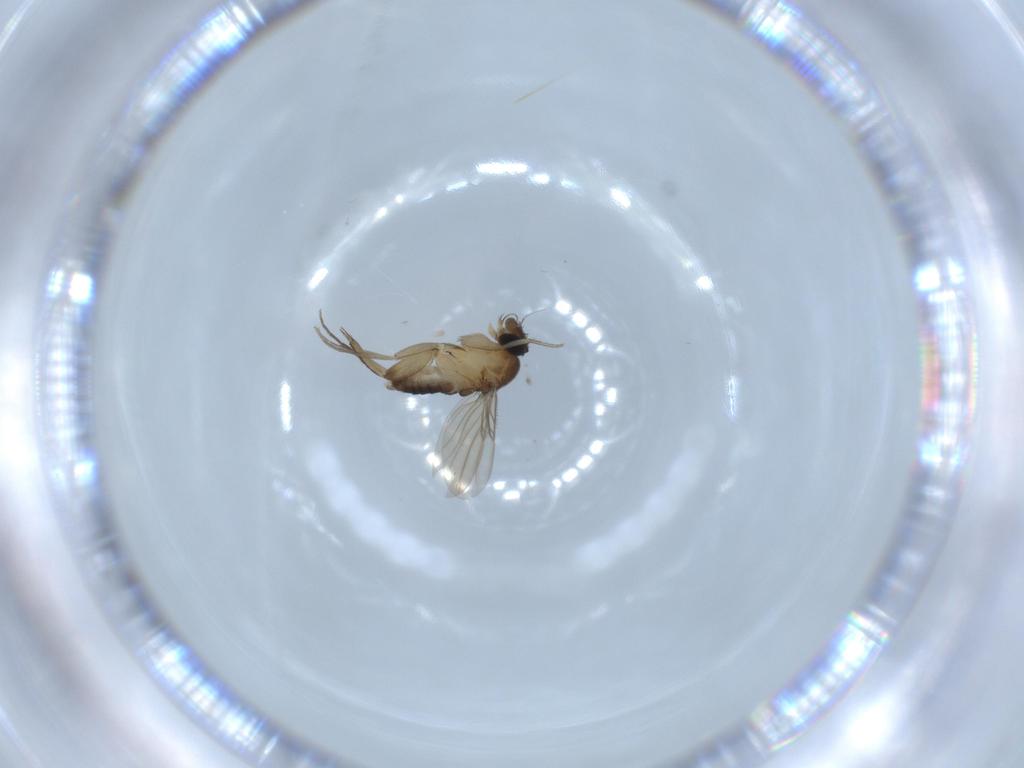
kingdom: Animalia
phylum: Arthropoda
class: Insecta
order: Diptera
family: Phoridae
